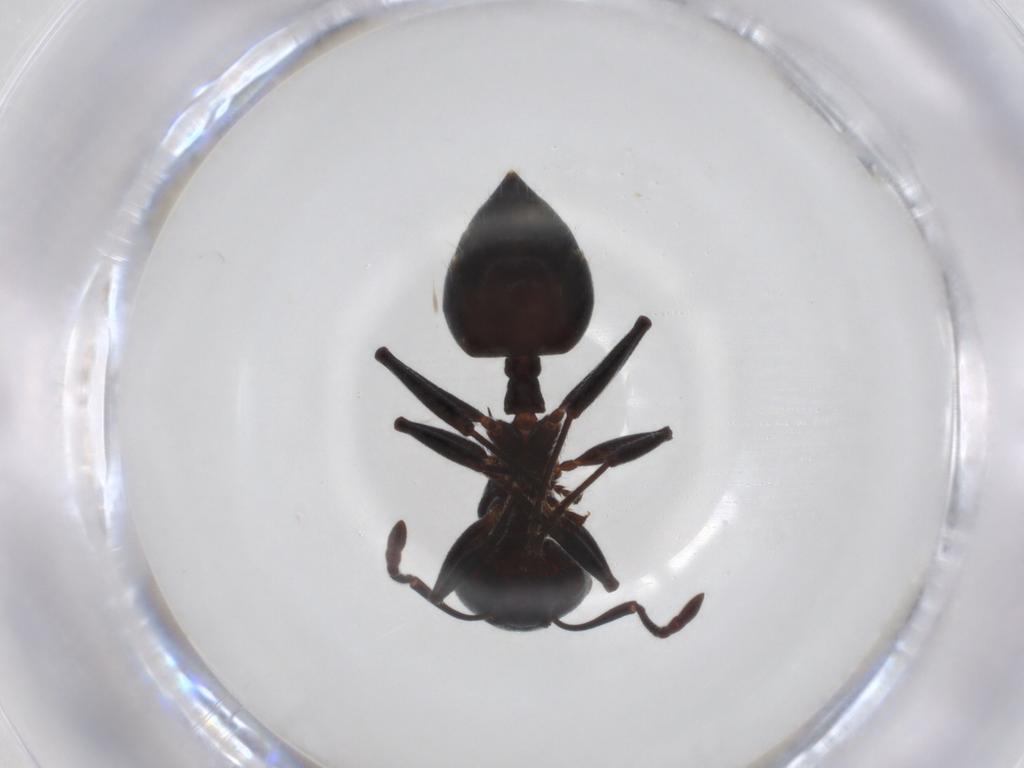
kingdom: Animalia
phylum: Arthropoda
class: Insecta
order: Hymenoptera
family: Formicidae
